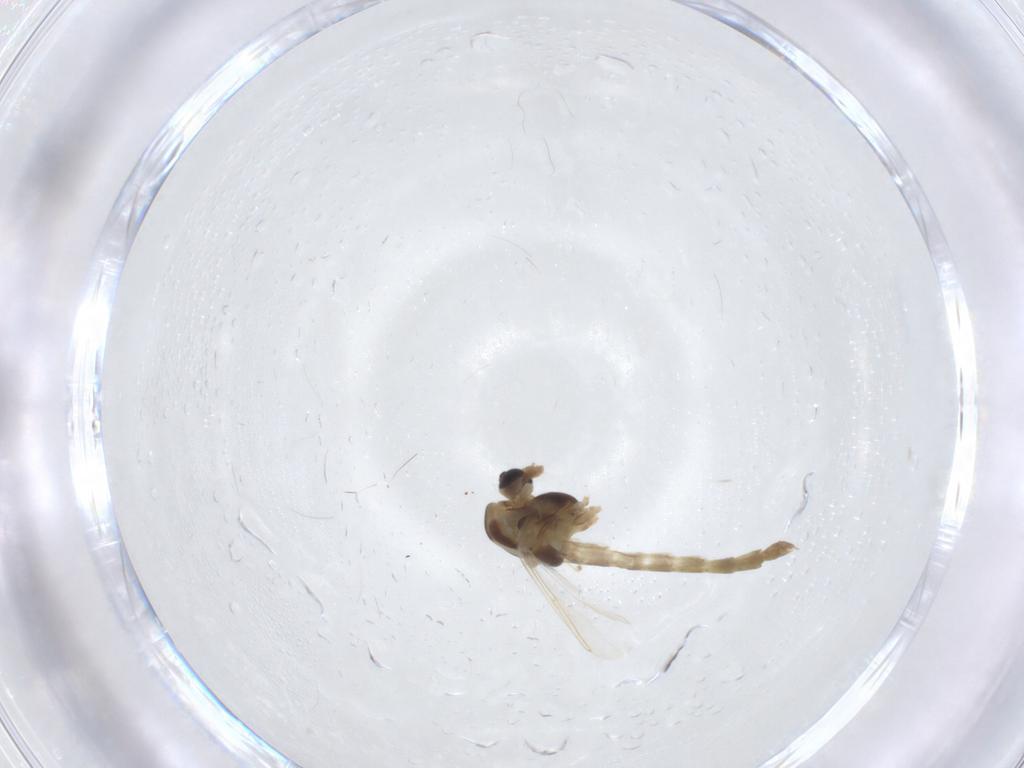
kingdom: Animalia
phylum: Arthropoda
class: Insecta
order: Diptera
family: Chironomidae
